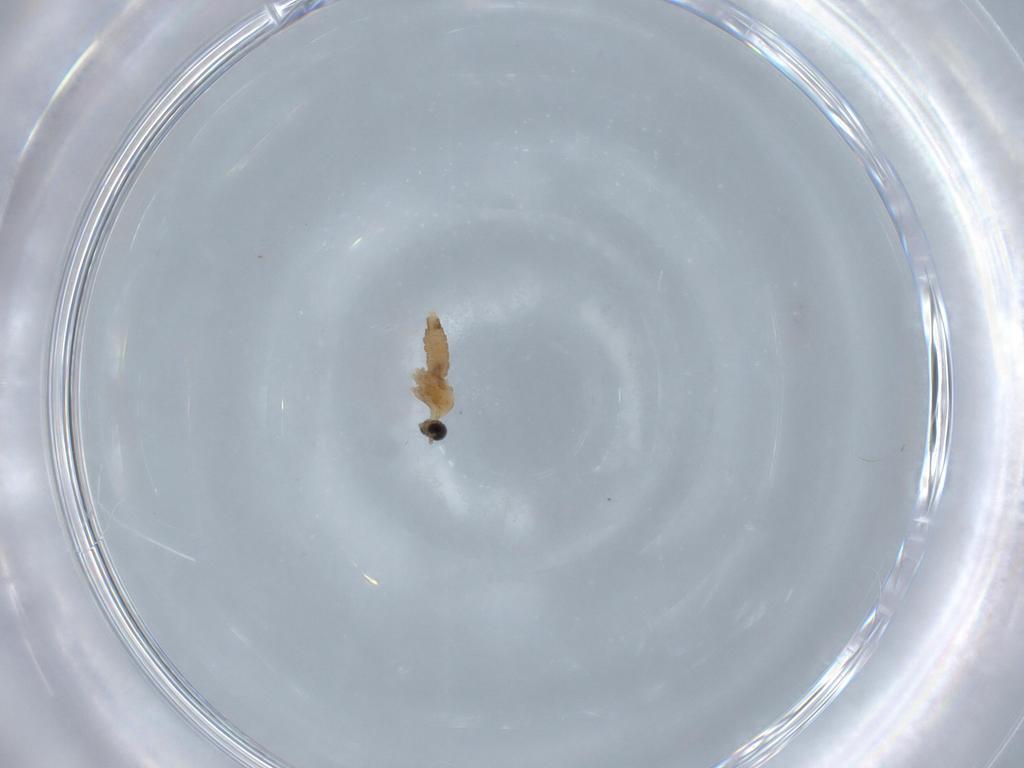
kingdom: Animalia
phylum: Arthropoda
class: Insecta
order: Diptera
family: Cecidomyiidae
